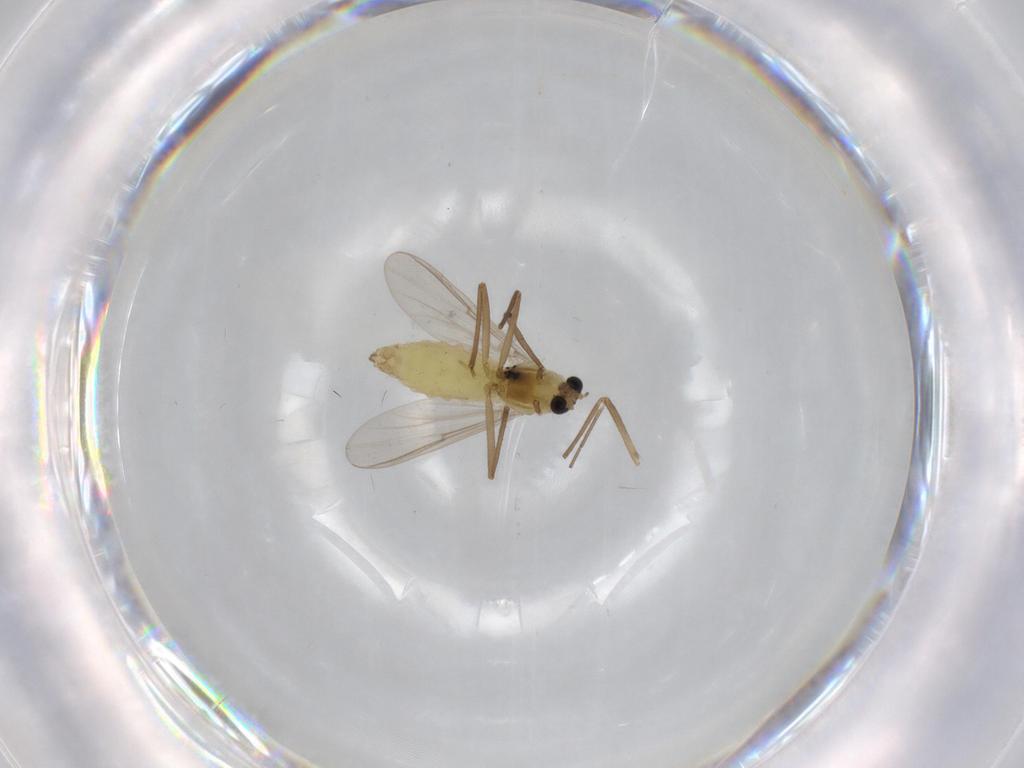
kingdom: Animalia
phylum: Arthropoda
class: Insecta
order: Diptera
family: Chironomidae
